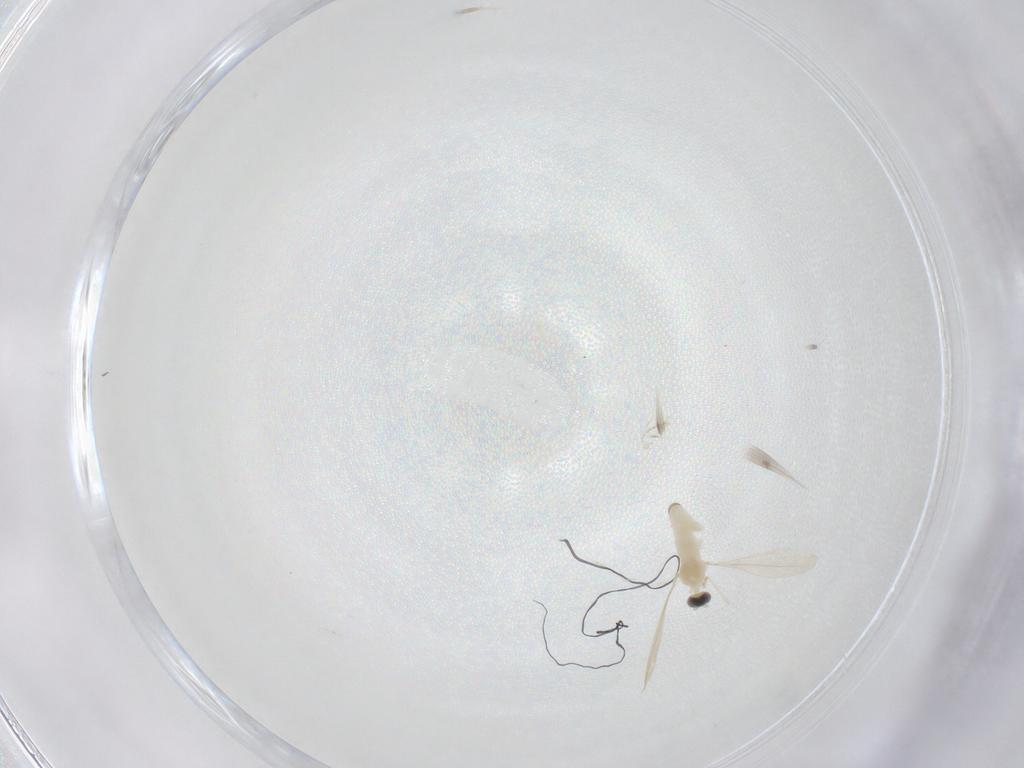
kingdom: Animalia
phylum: Arthropoda
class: Insecta
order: Diptera
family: Cecidomyiidae
